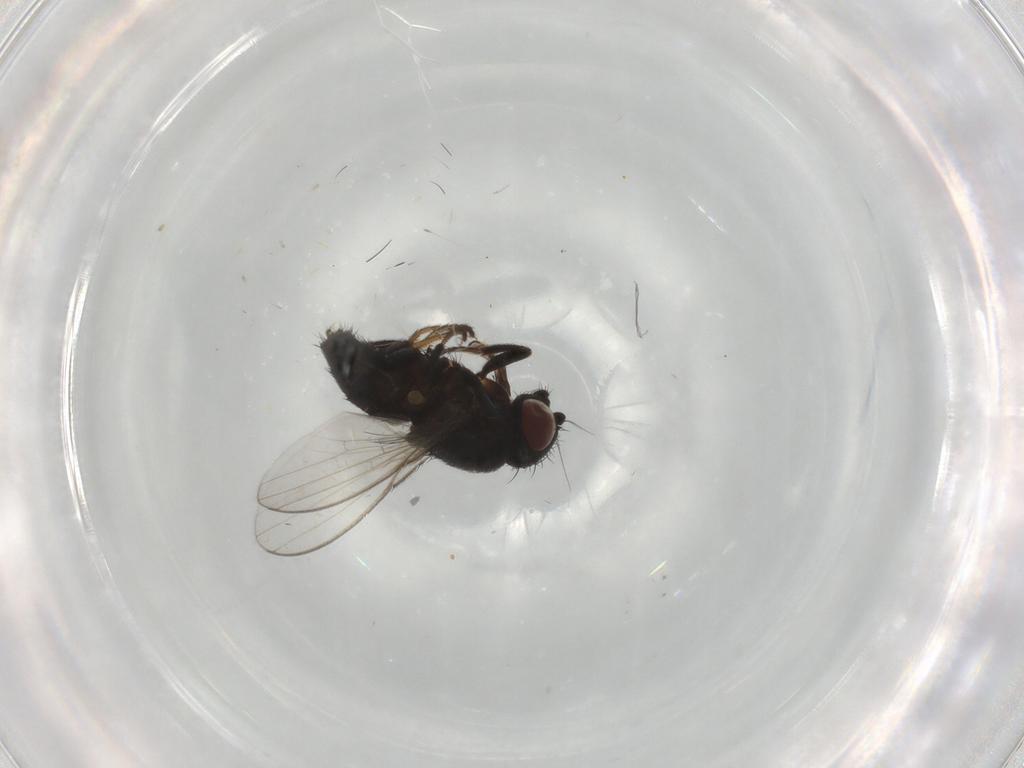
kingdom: Animalia
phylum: Arthropoda
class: Insecta
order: Diptera
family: Milichiidae
